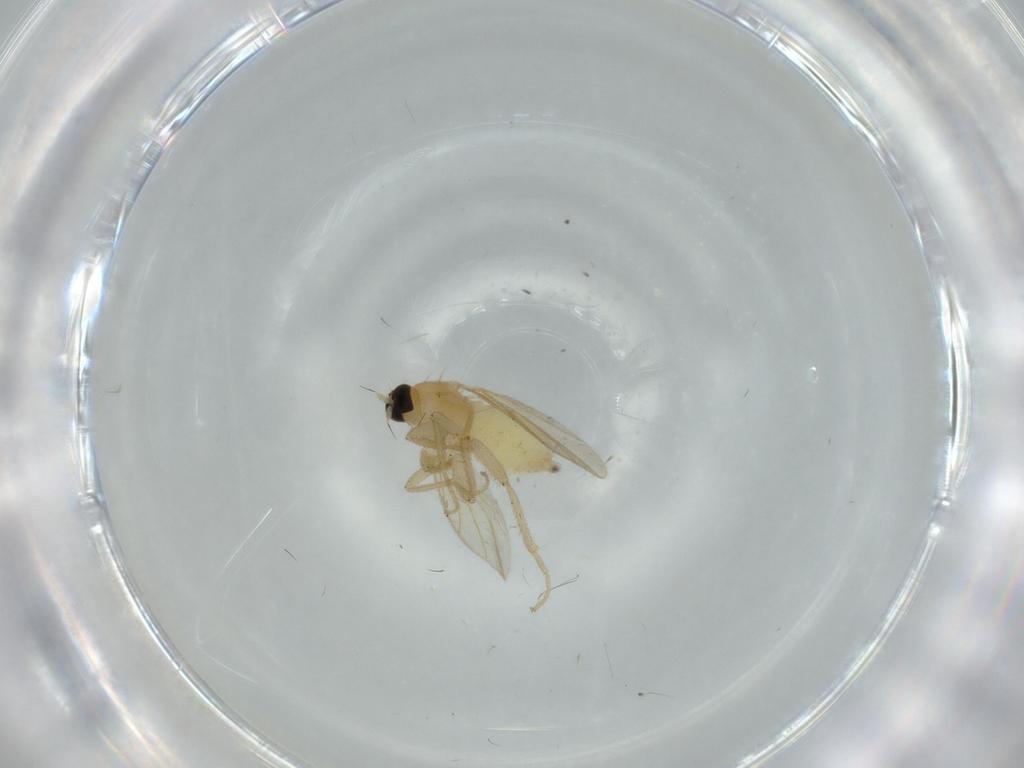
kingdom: Animalia
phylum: Arthropoda
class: Insecta
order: Diptera
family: Hybotidae
